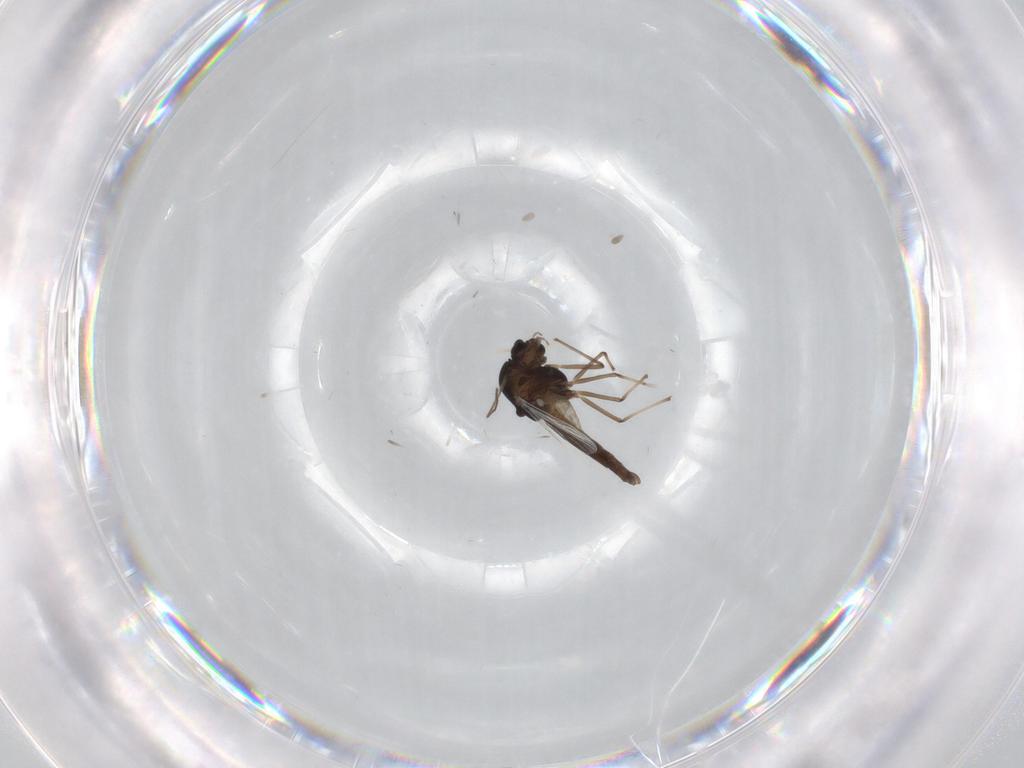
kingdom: Animalia
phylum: Arthropoda
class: Insecta
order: Diptera
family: Chironomidae
